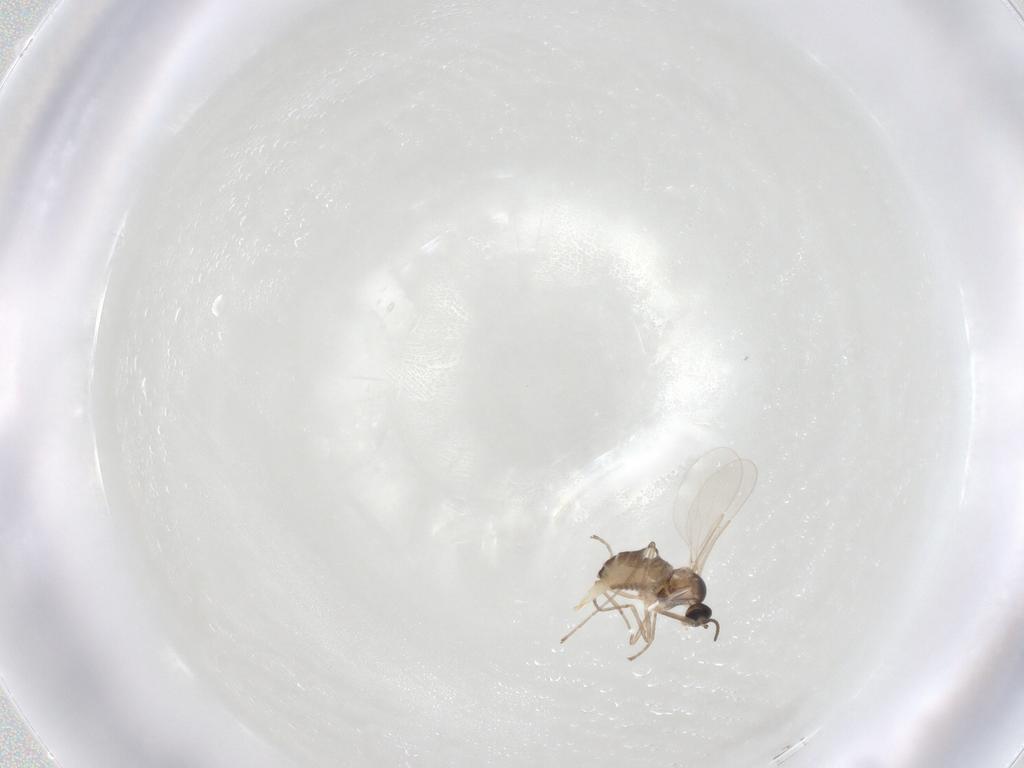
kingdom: Animalia
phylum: Arthropoda
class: Insecta
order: Diptera
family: Cecidomyiidae
